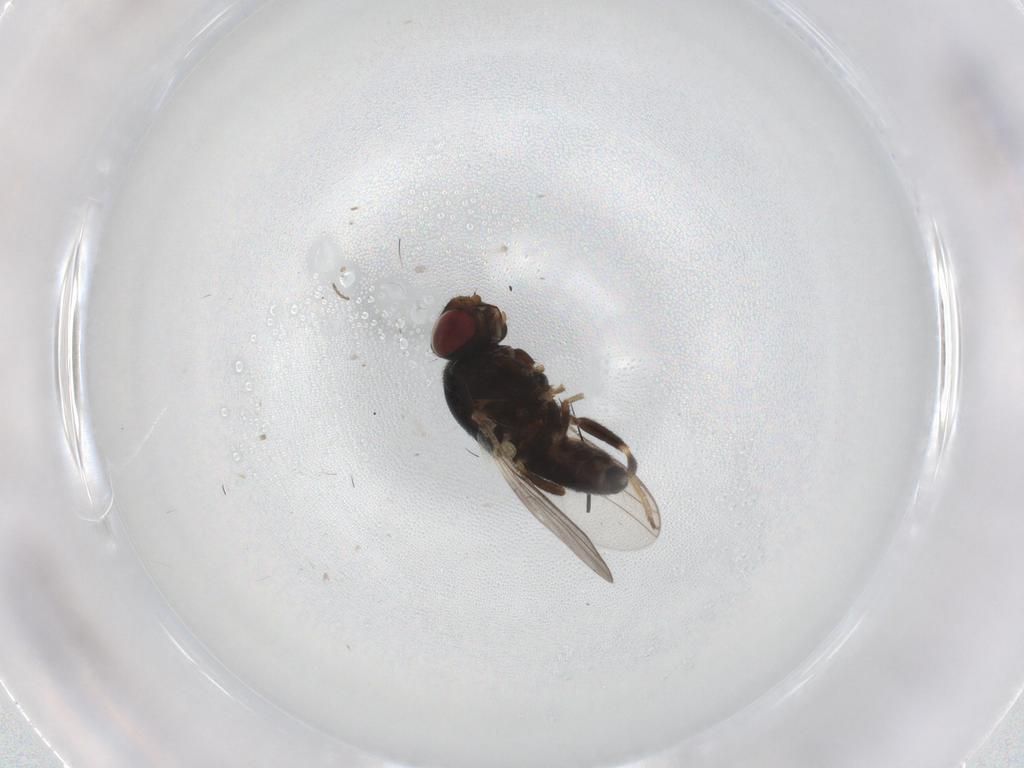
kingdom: Animalia
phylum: Arthropoda
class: Insecta
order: Diptera
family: Chloropidae
